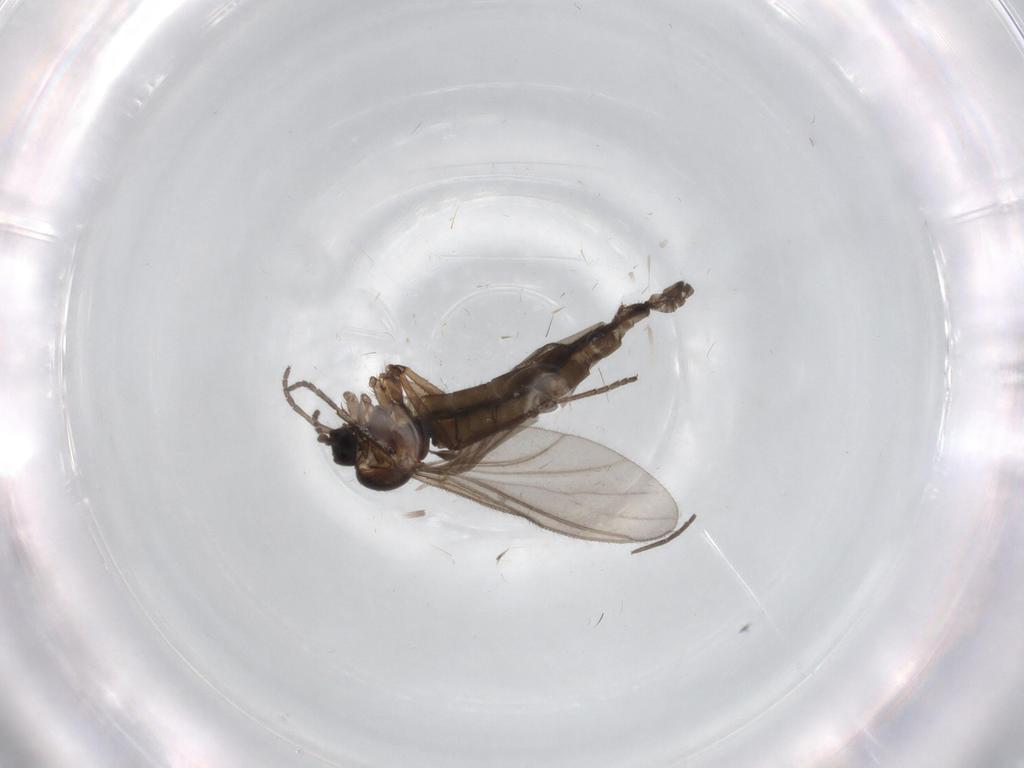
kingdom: Animalia
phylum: Arthropoda
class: Insecta
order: Diptera
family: Sciaridae
